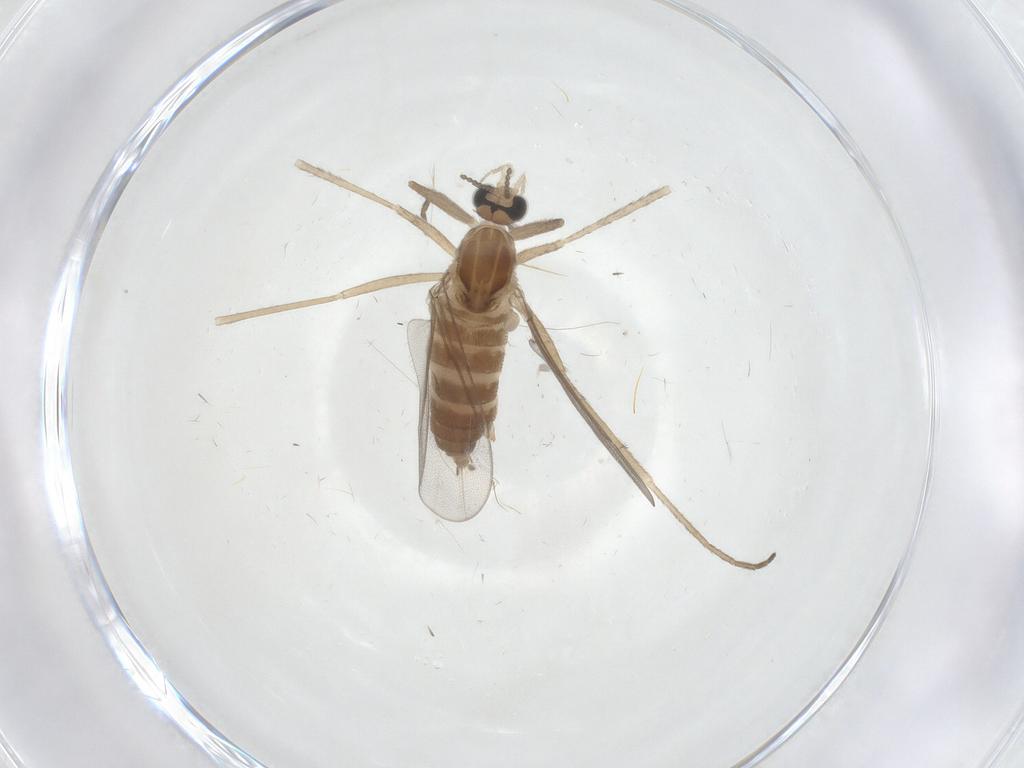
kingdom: Animalia
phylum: Arthropoda
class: Insecta
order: Diptera
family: Cecidomyiidae
